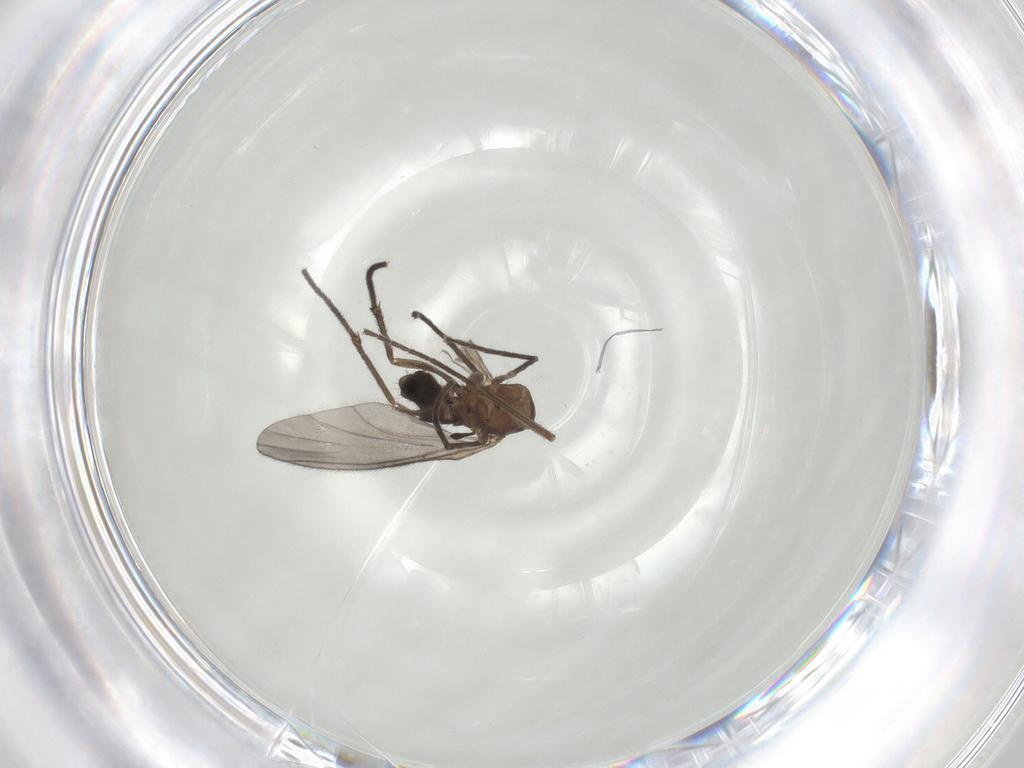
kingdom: Animalia
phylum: Arthropoda
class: Insecta
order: Diptera
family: Sciaridae
